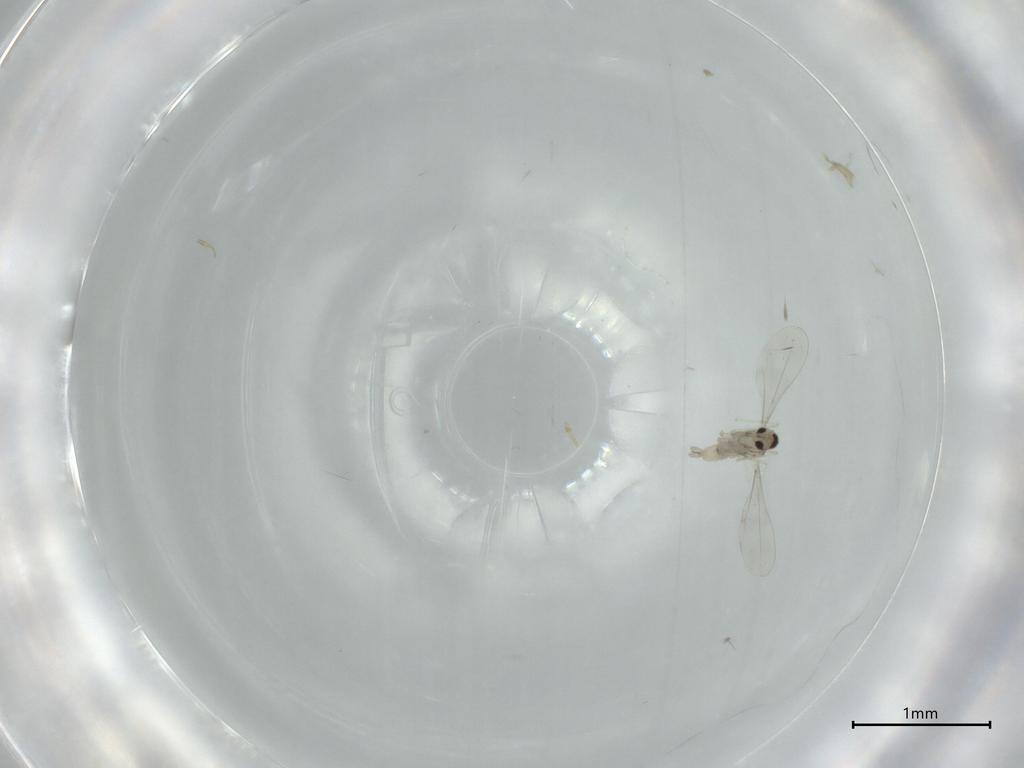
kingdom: Animalia
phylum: Arthropoda
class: Insecta
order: Diptera
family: Cecidomyiidae
